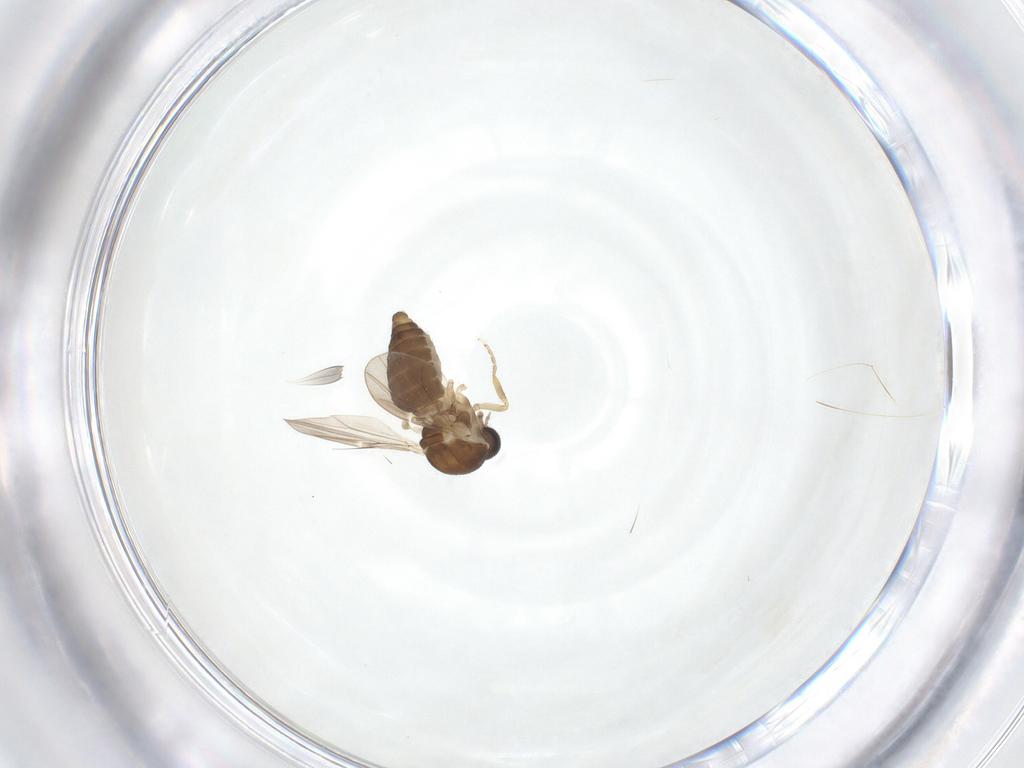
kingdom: Animalia
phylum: Arthropoda
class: Insecta
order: Diptera
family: Ceratopogonidae
